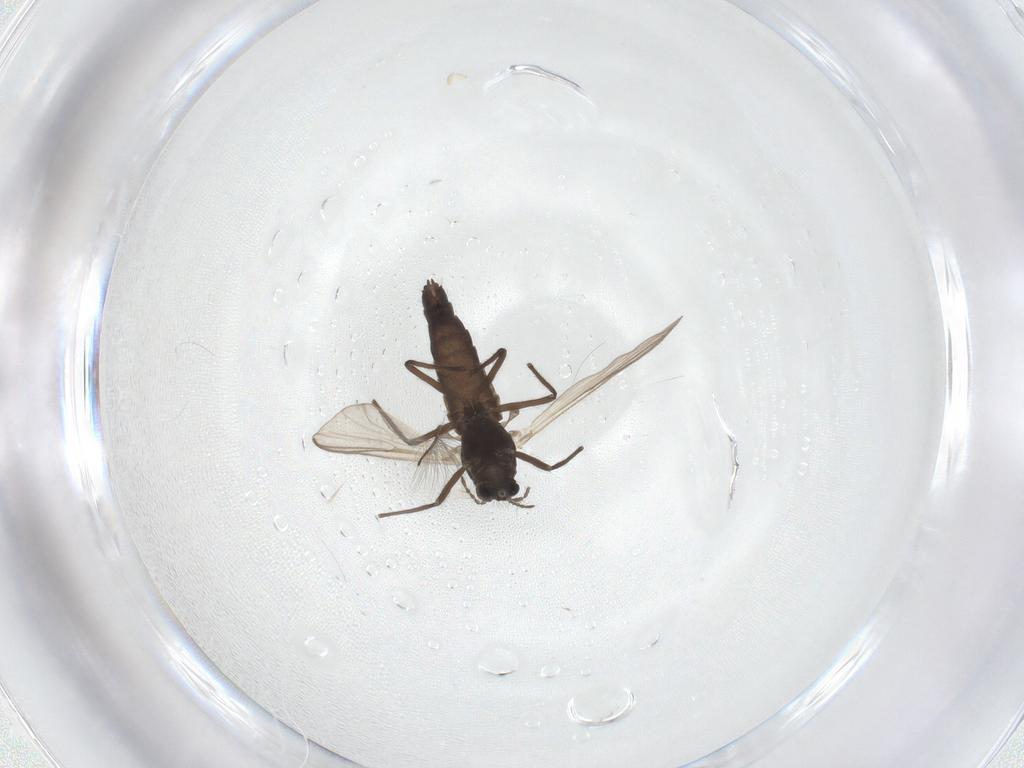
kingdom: Animalia
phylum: Arthropoda
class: Insecta
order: Diptera
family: Chironomidae
